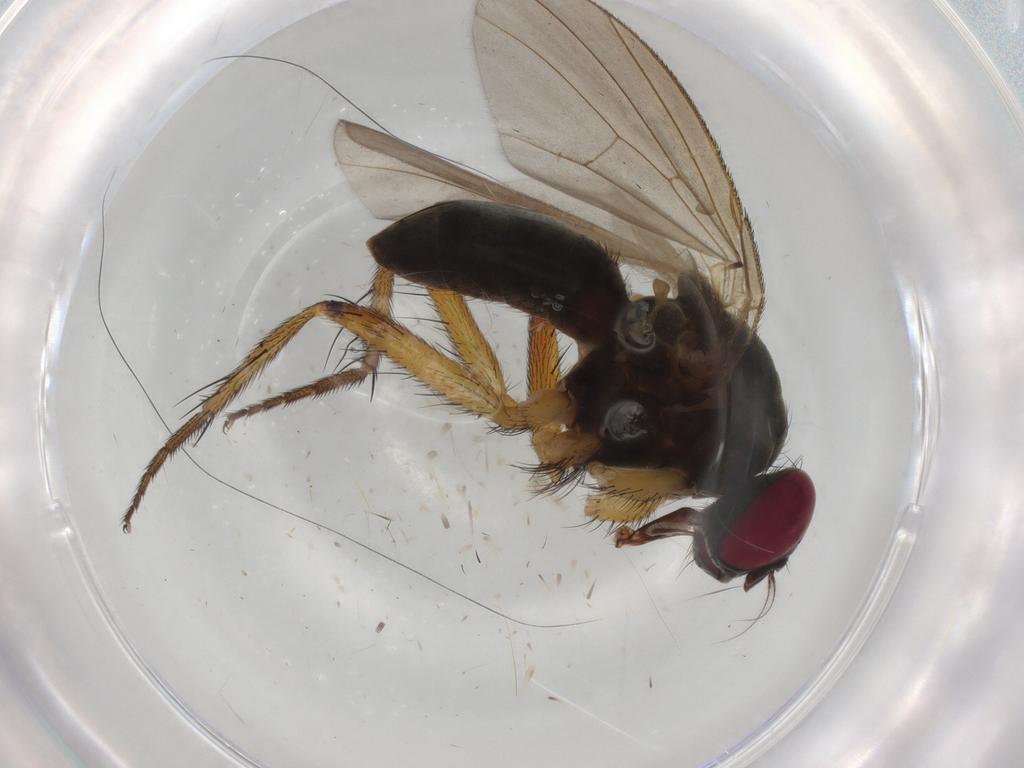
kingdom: Animalia
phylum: Arthropoda
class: Insecta
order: Diptera
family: Muscidae
